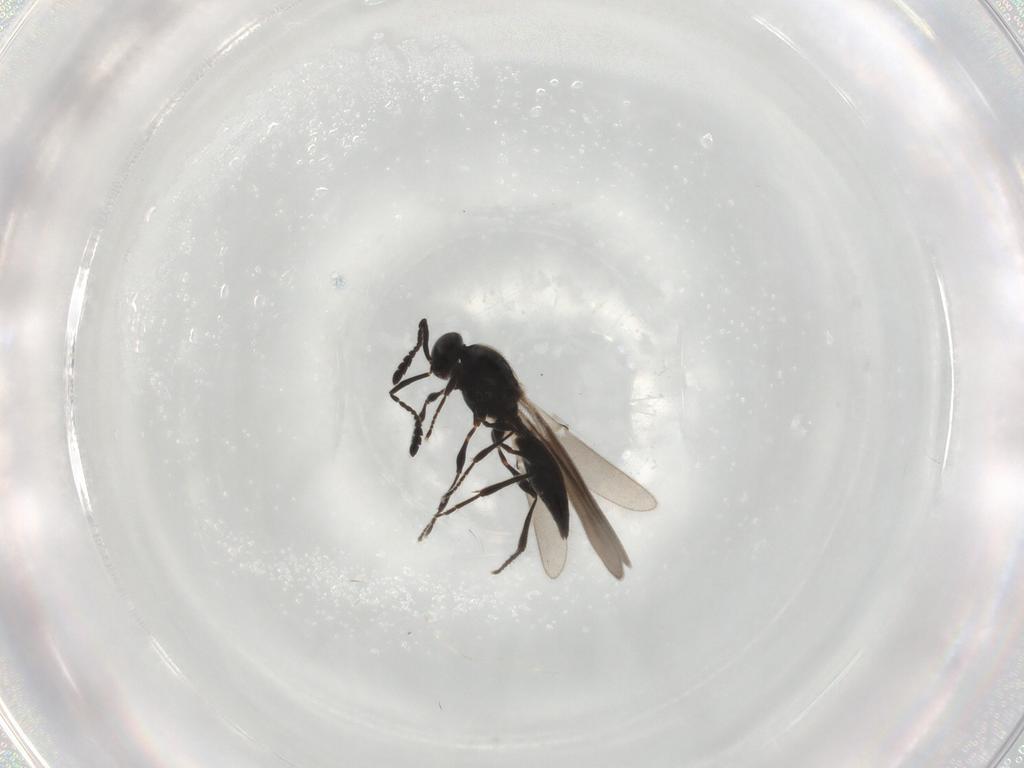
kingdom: Animalia
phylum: Arthropoda
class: Insecta
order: Hymenoptera
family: Platygastridae
